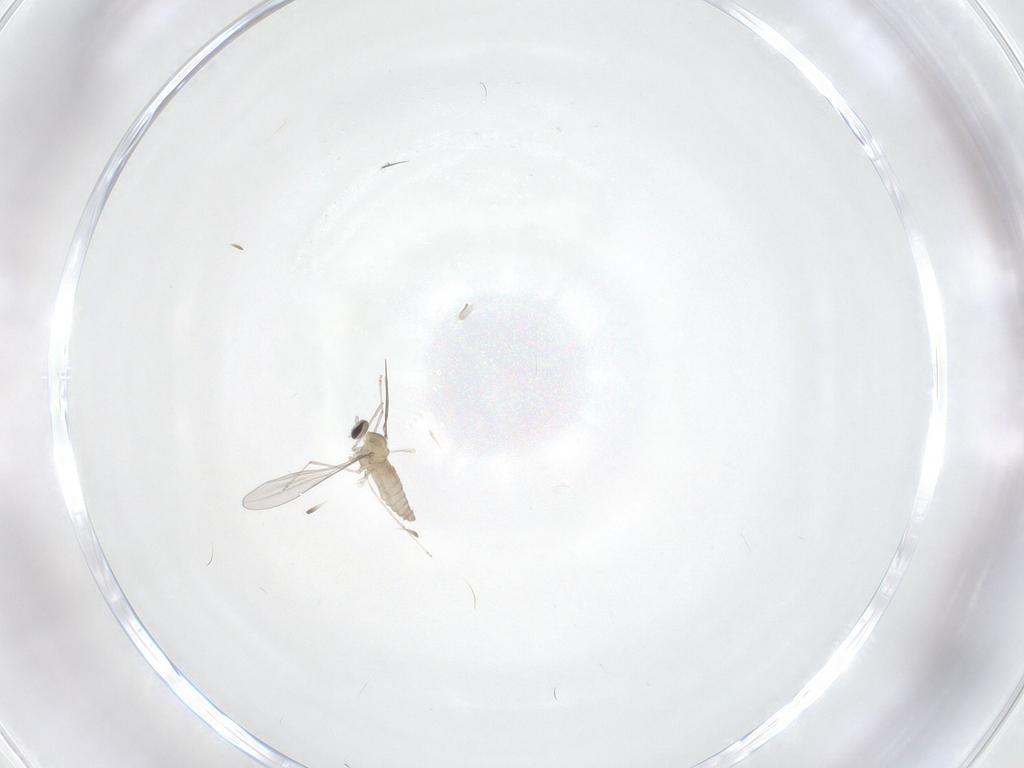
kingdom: Animalia
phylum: Arthropoda
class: Insecta
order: Diptera
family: Cecidomyiidae
